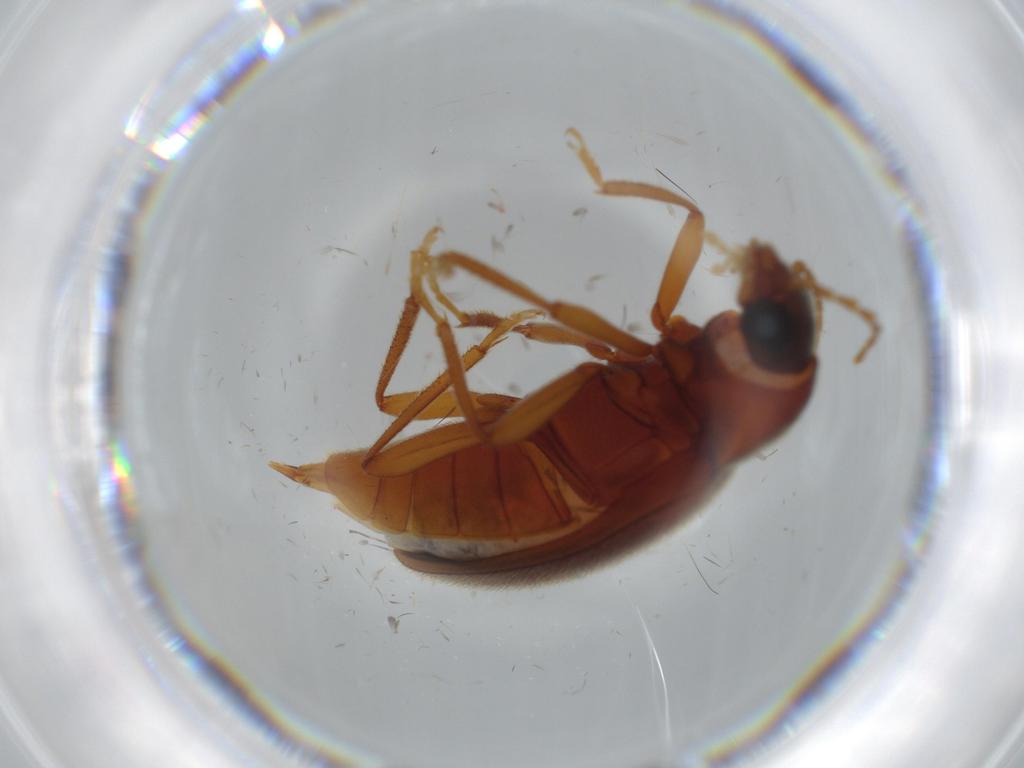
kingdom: Animalia
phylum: Arthropoda
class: Insecta
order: Coleoptera
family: Ptilodactylidae
